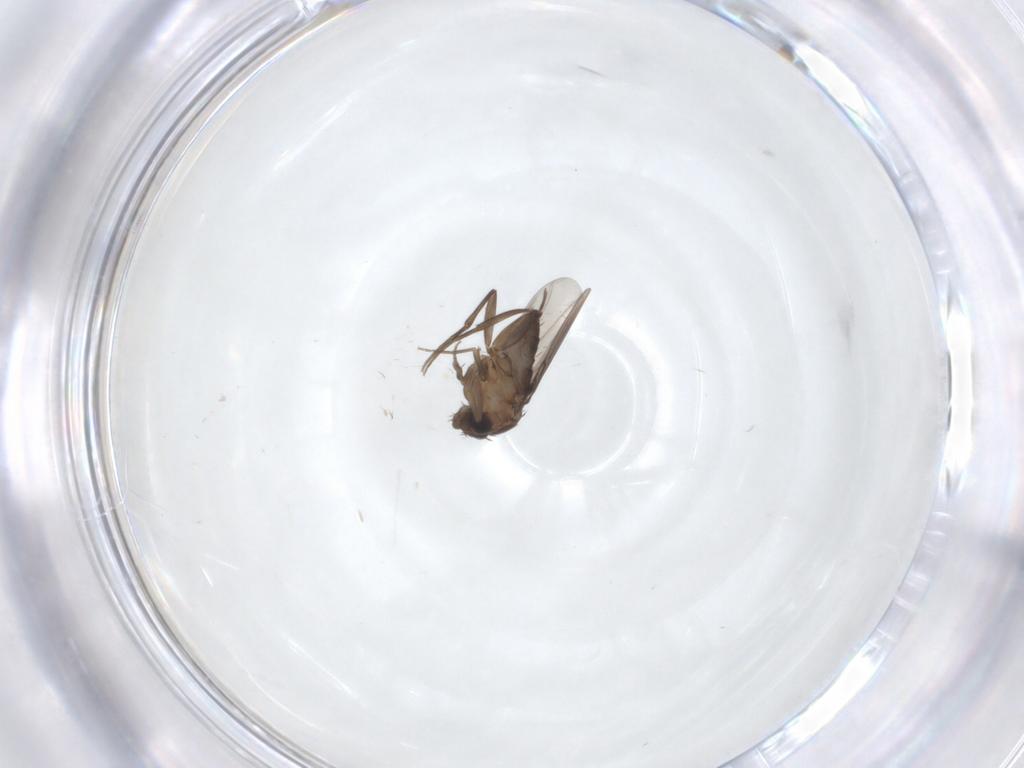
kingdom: Animalia
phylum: Arthropoda
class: Insecta
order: Diptera
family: Phoridae
